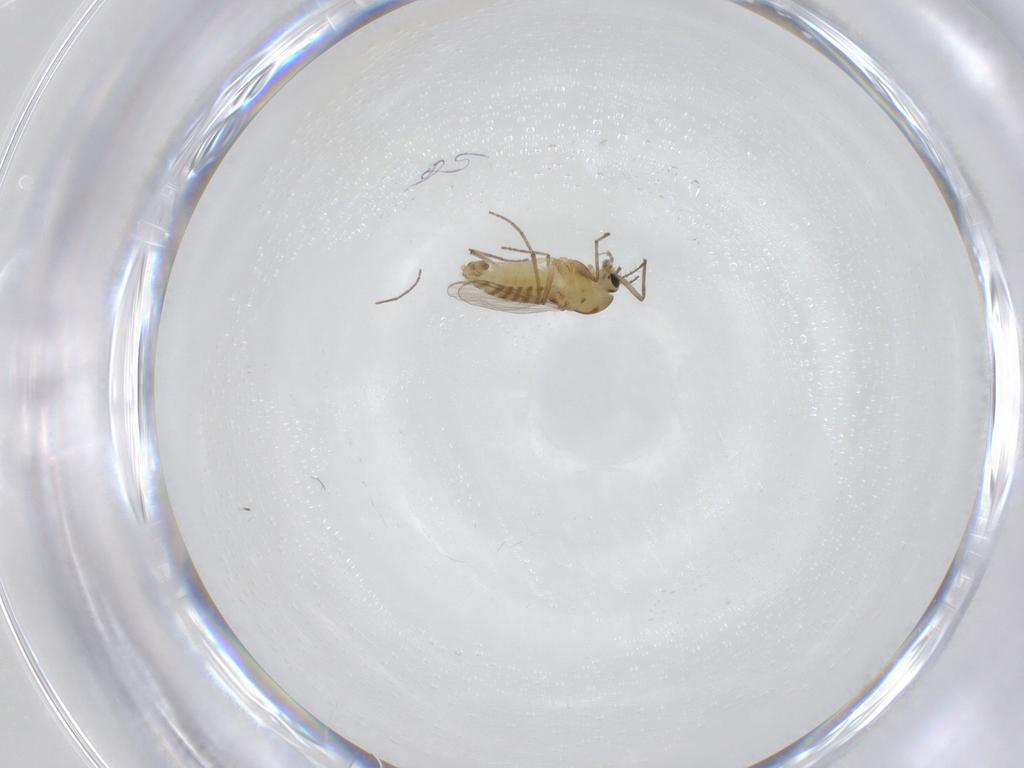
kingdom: Animalia
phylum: Arthropoda
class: Insecta
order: Diptera
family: Chironomidae
